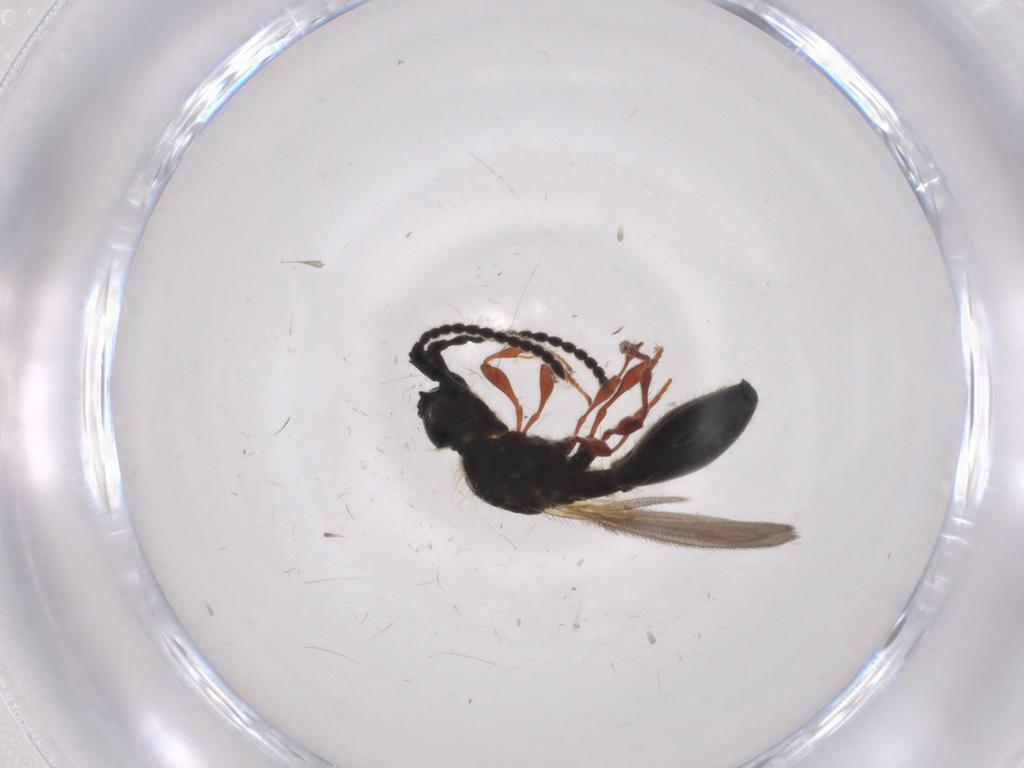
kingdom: Animalia
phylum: Arthropoda
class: Insecta
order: Hymenoptera
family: Diapriidae
